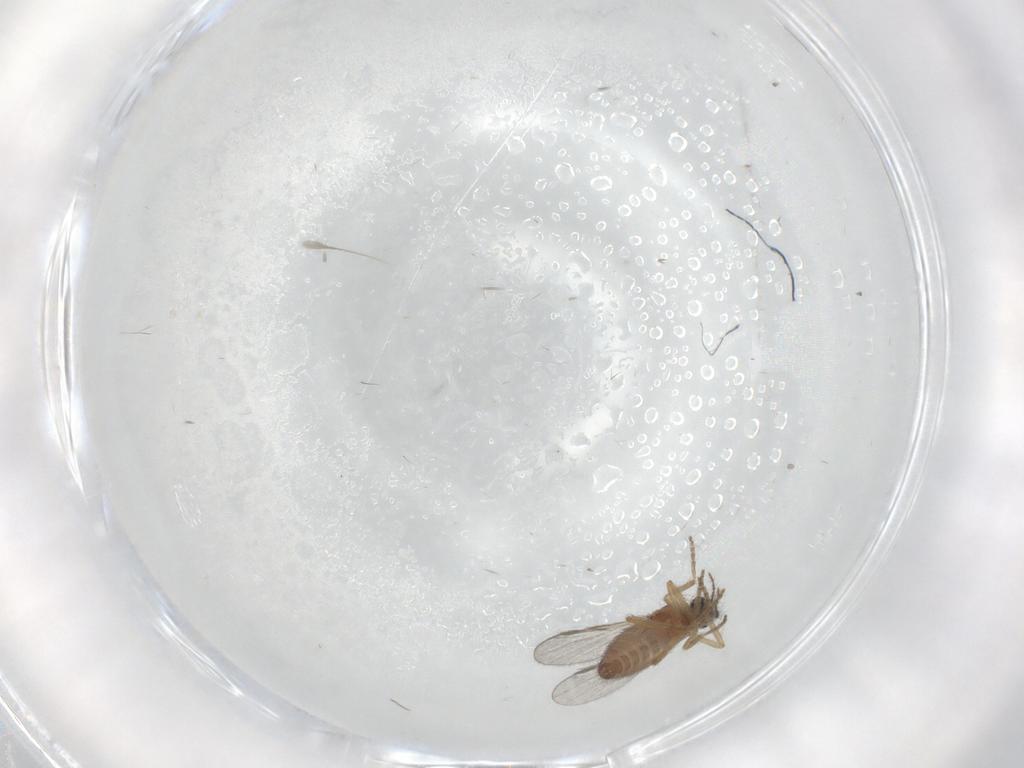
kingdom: Animalia
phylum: Arthropoda
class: Insecta
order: Diptera
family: Ceratopogonidae
